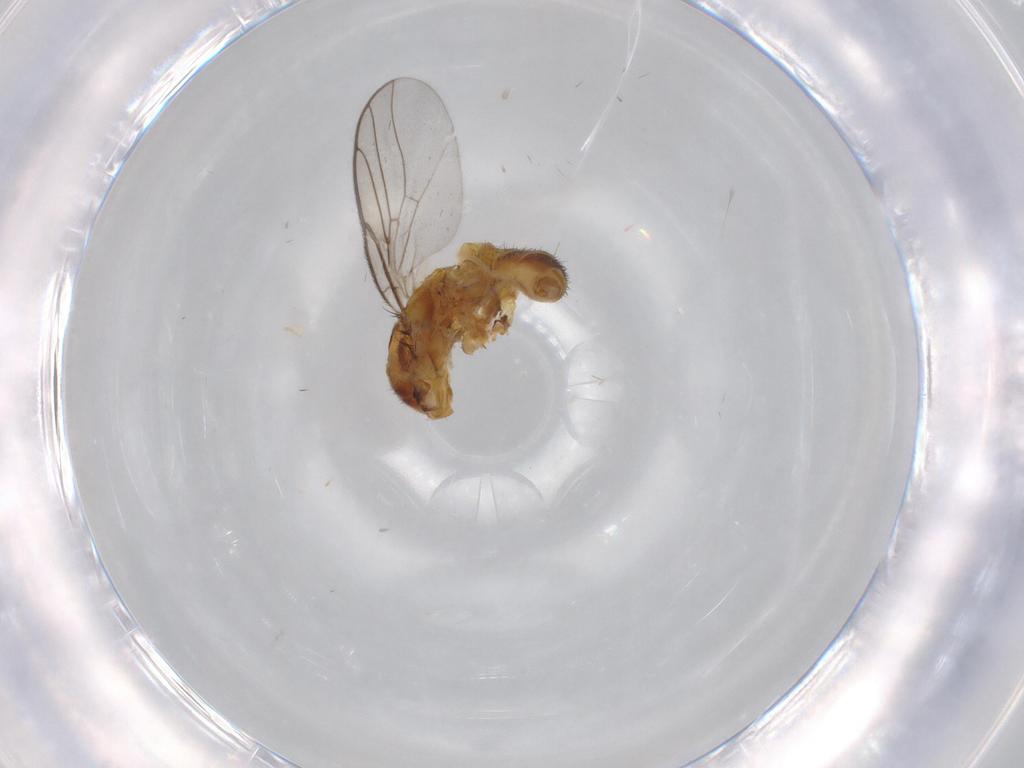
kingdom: Animalia
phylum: Arthropoda
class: Insecta
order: Diptera
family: Chloropidae
